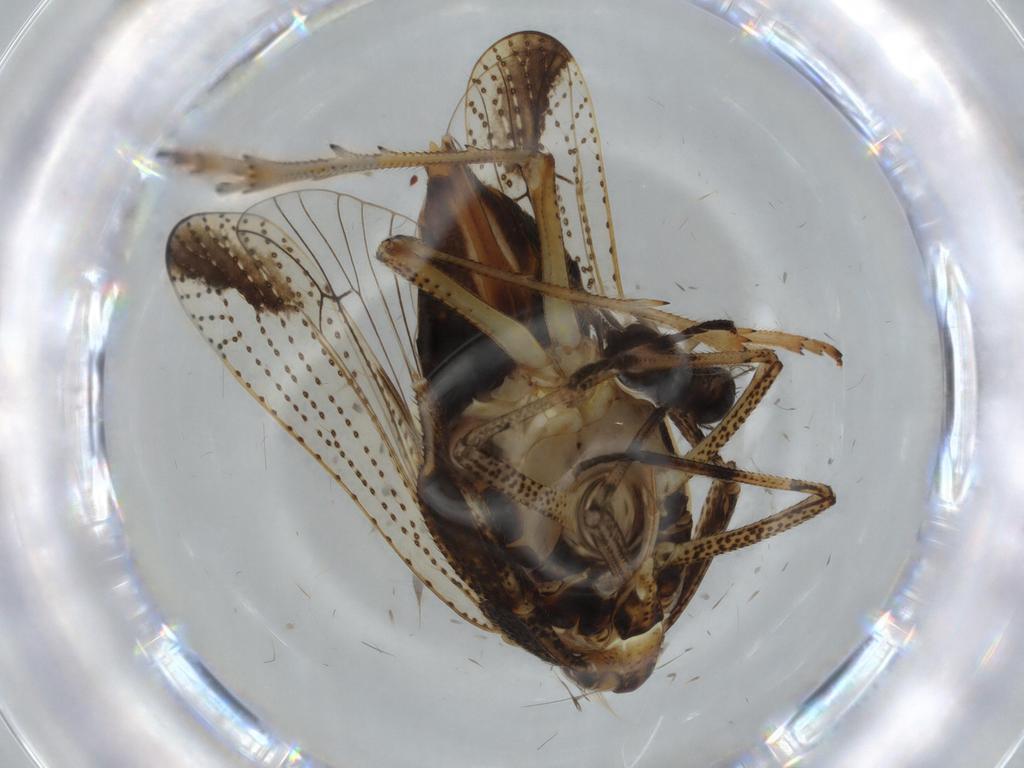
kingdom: Animalia
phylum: Arthropoda
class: Insecta
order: Hemiptera
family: Aleyrodidae
